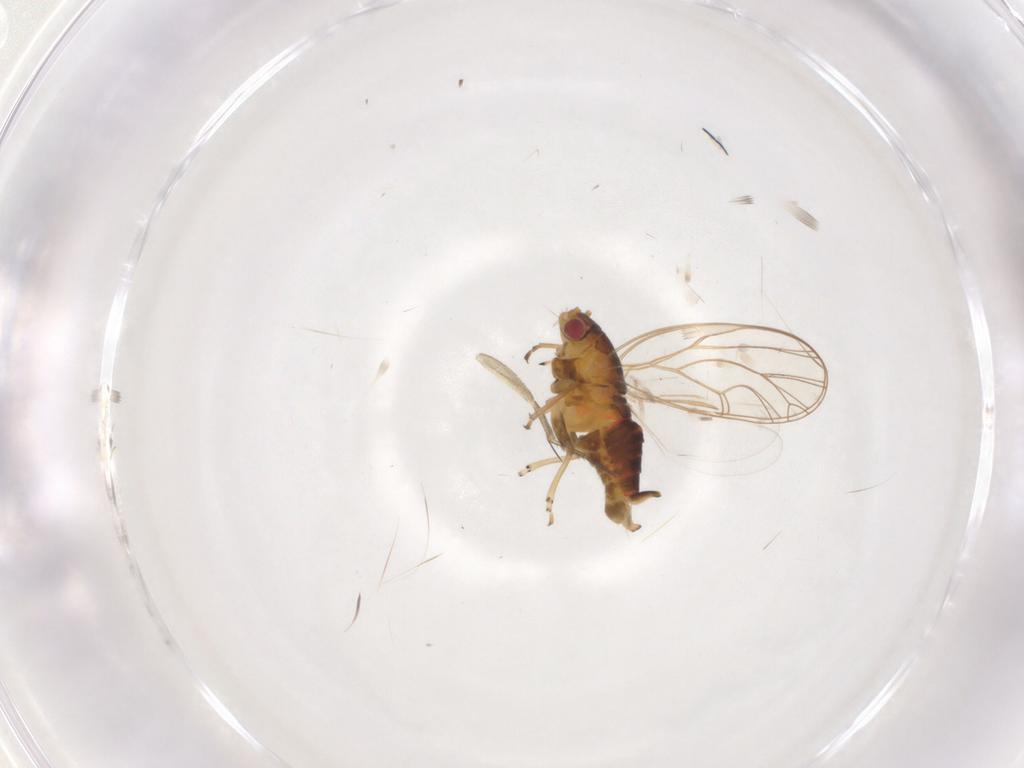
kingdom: Animalia
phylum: Arthropoda
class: Insecta
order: Diptera
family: Phoridae
